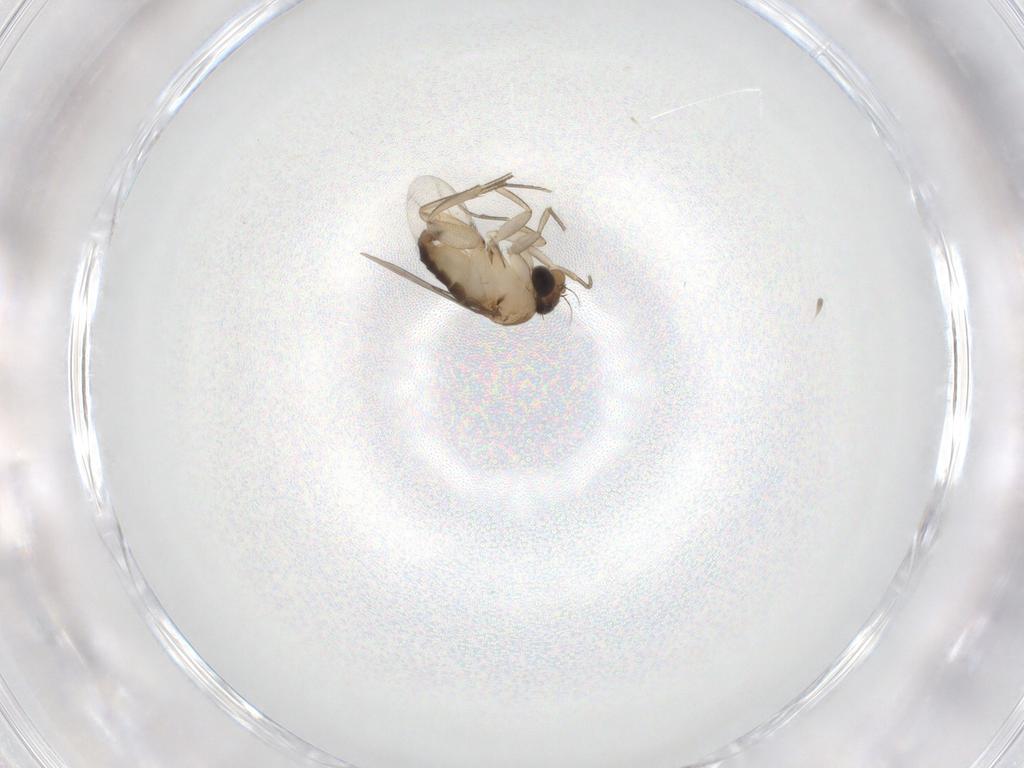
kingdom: Animalia
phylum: Arthropoda
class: Insecta
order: Diptera
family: Phoridae
